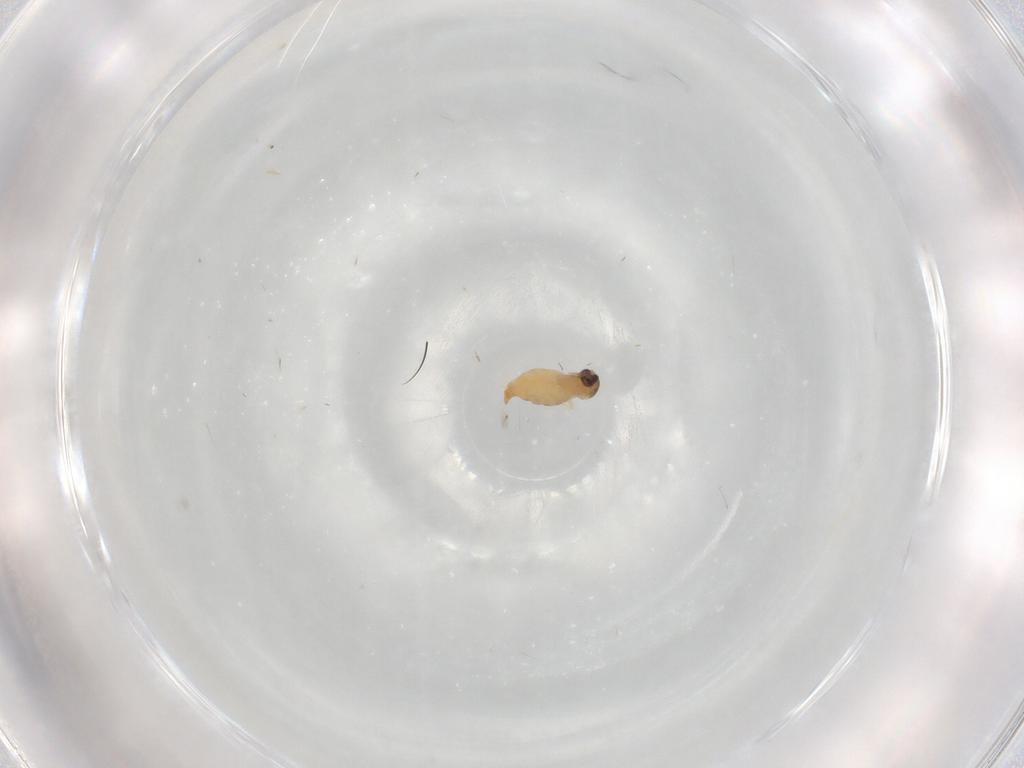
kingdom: Animalia
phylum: Arthropoda
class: Insecta
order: Diptera
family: Cecidomyiidae
